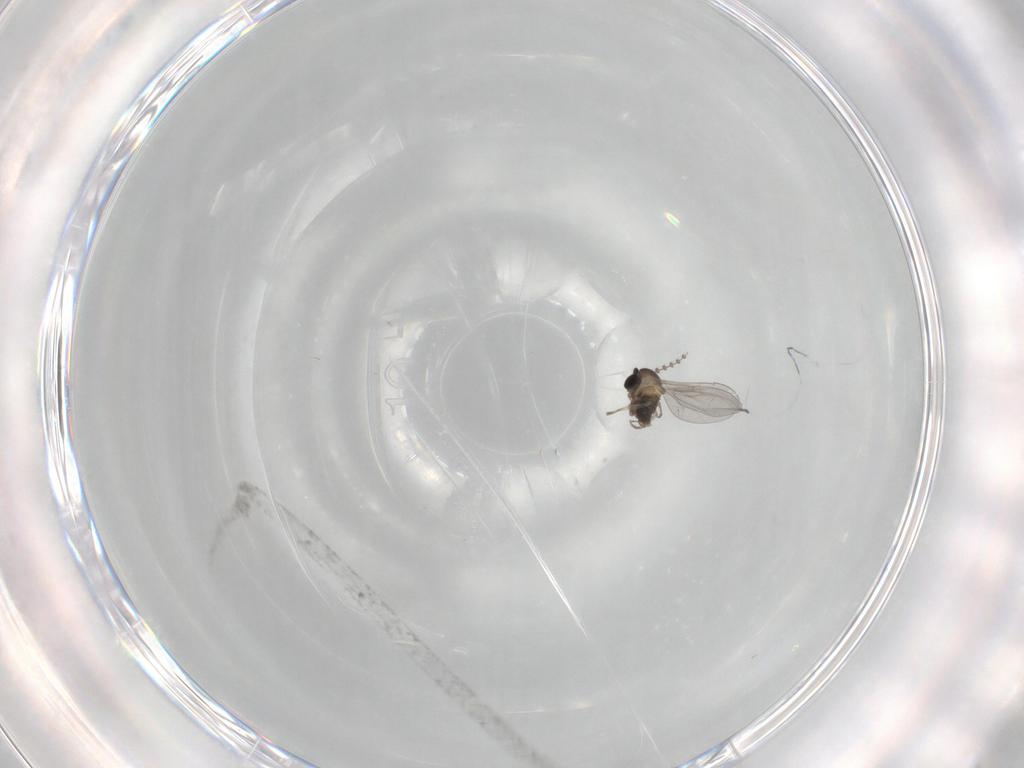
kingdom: Animalia
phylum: Arthropoda
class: Insecta
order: Diptera
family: Cecidomyiidae
